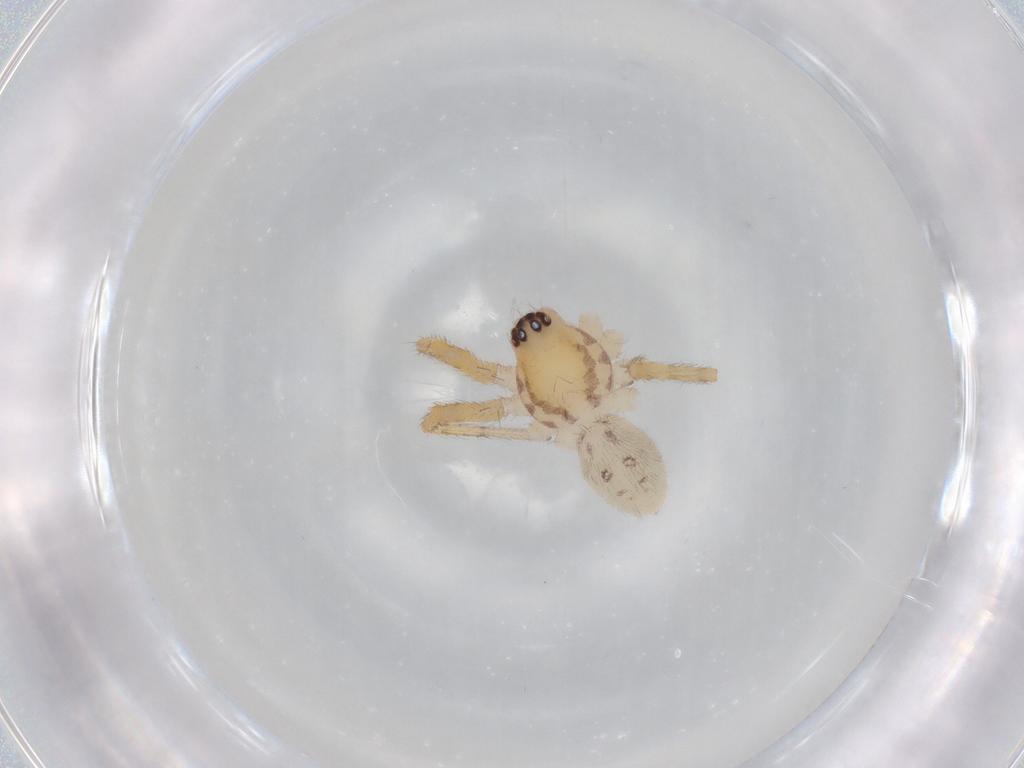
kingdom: Animalia
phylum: Arthropoda
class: Arachnida
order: Araneae
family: Corinnidae
